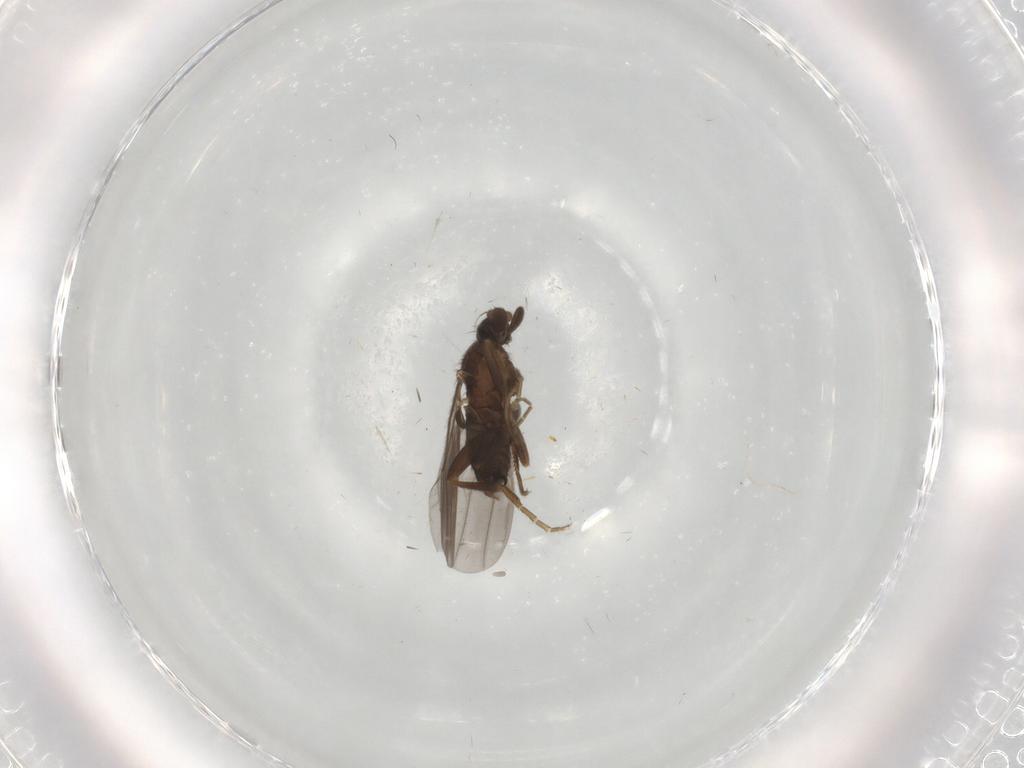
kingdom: Animalia
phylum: Arthropoda
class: Insecta
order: Diptera
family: Phoridae
